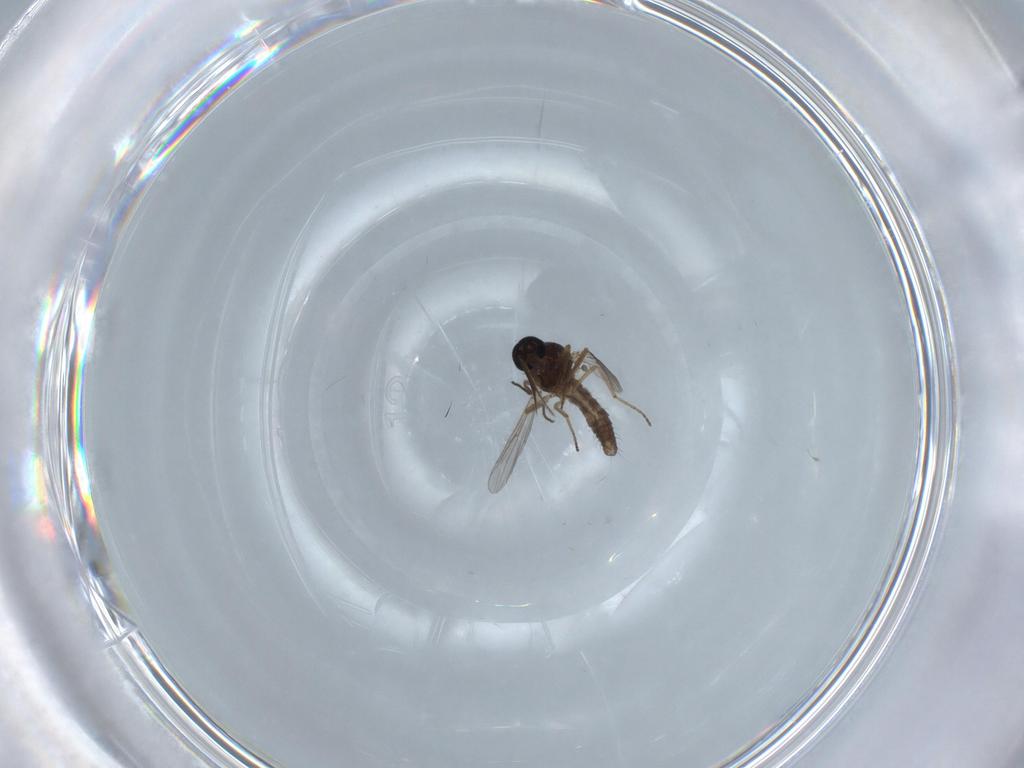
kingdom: Animalia
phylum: Arthropoda
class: Insecta
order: Diptera
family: Ceratopogonidae
